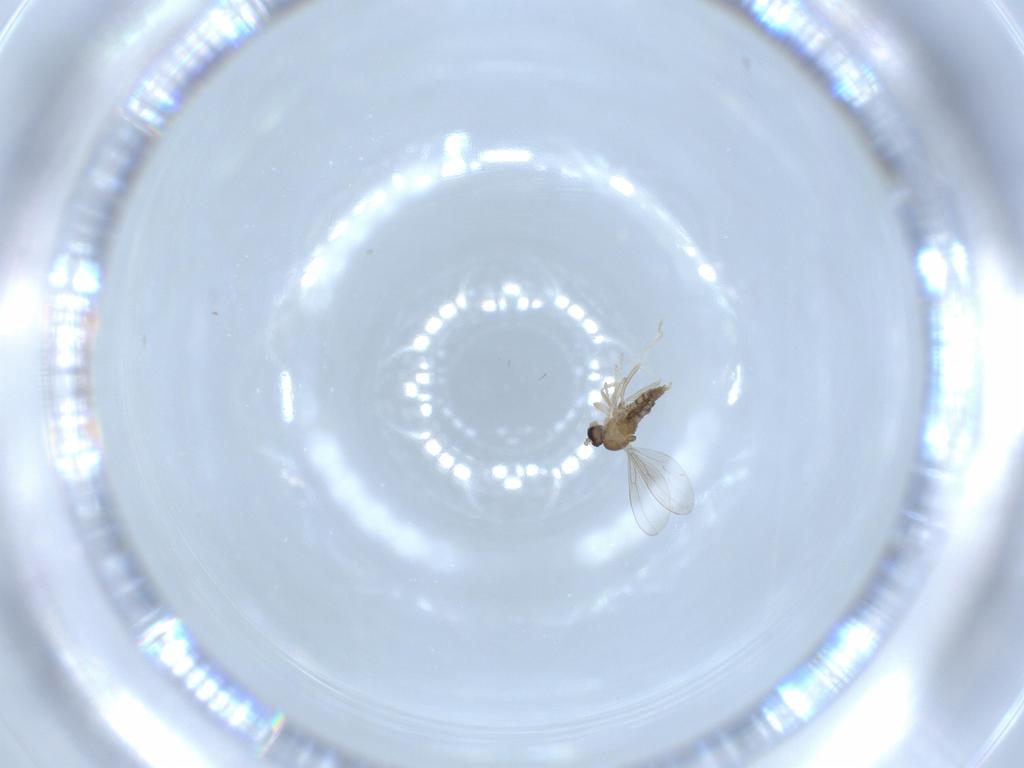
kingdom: Animalia
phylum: Arthropoda
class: Insecta
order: Diptera
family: Cecidomyiidae
